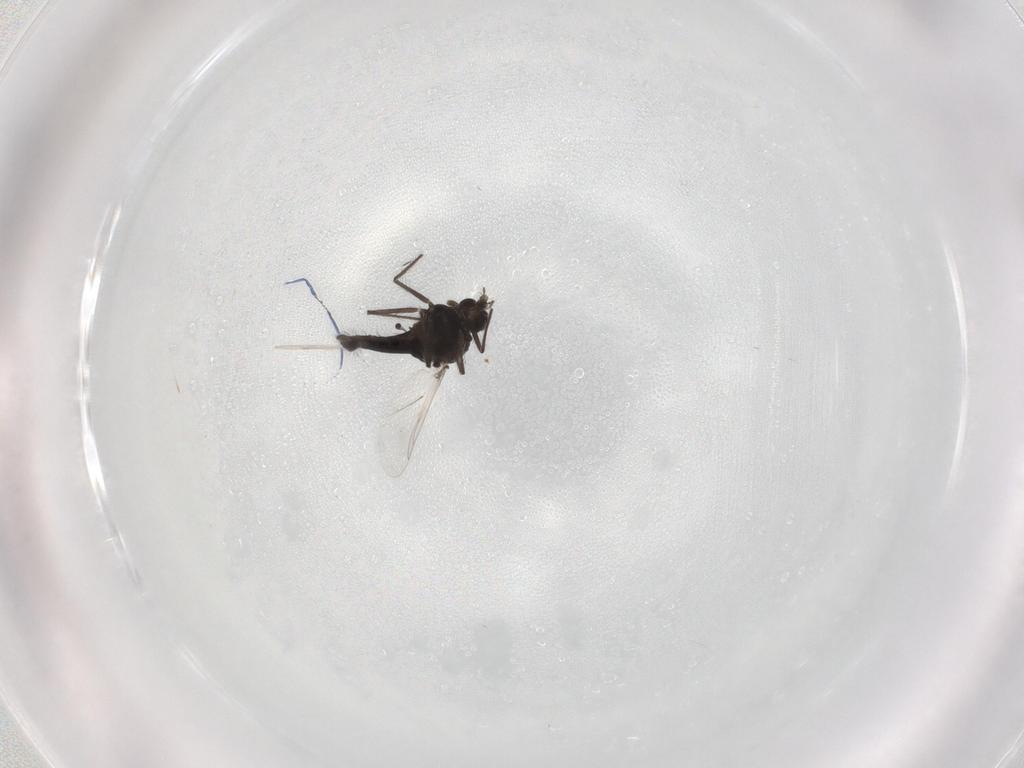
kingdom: Animalia
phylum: Arthropoda
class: Insecta
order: Diptera
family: Chironomidae
